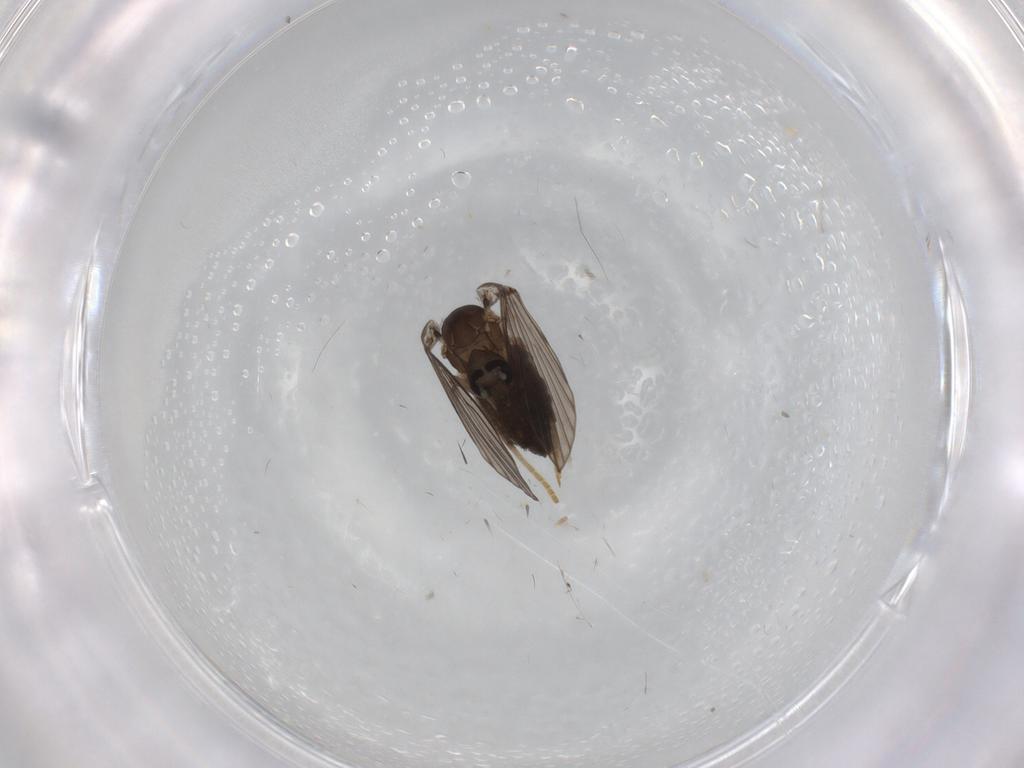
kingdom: Animalia
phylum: Arthropoda
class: Insecta
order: Diptera
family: Psychodidae
